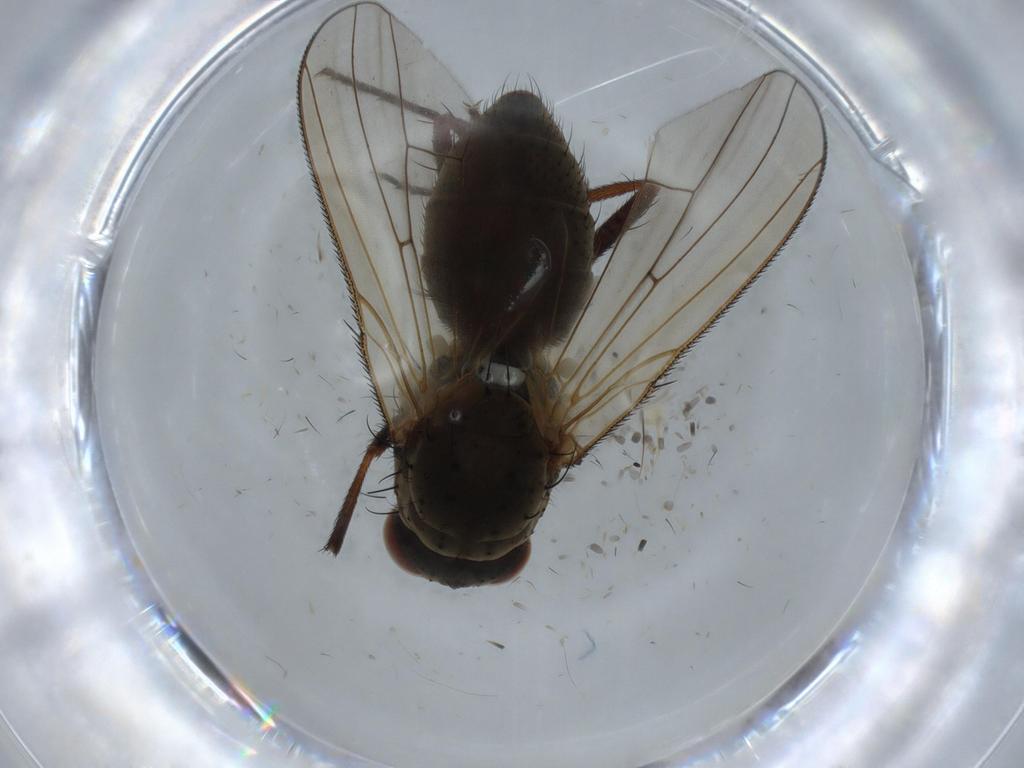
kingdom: Animalia
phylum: Arthropoda
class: Insecta
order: Diptera
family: Anthomyiidae
